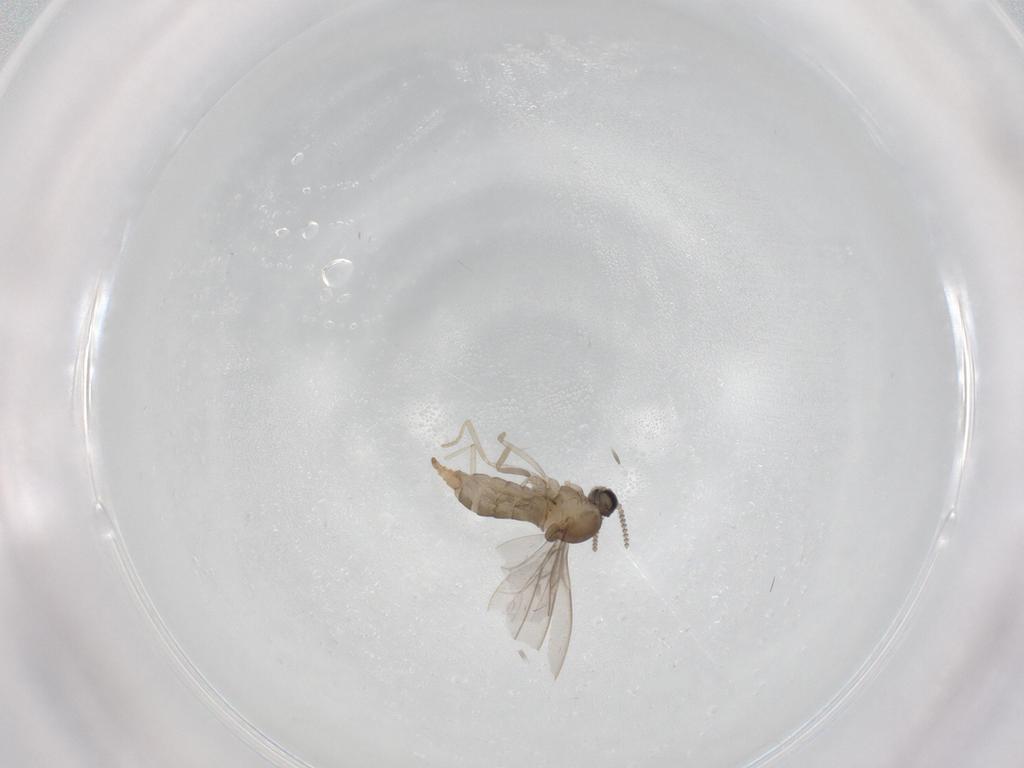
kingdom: Animalia
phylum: Arthropoda
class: Insecta
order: Diptera
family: Cecidomyiidae
